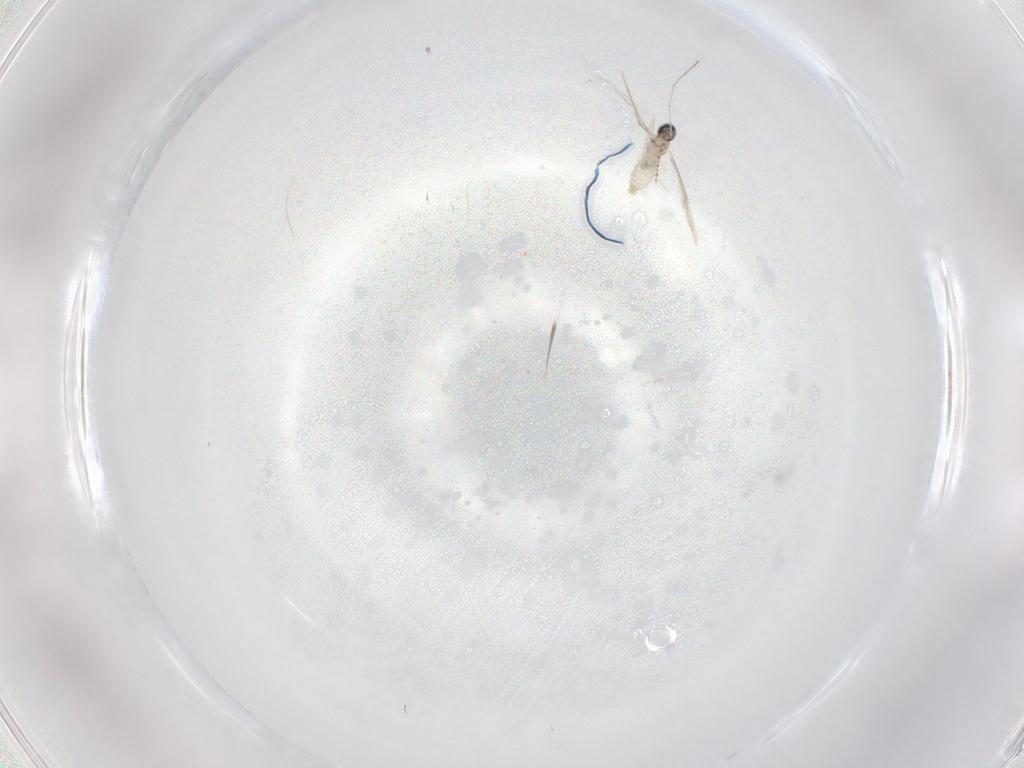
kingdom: Animalia
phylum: Arthropoda
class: Insecta
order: Diptera
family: Cecidomyiidae
